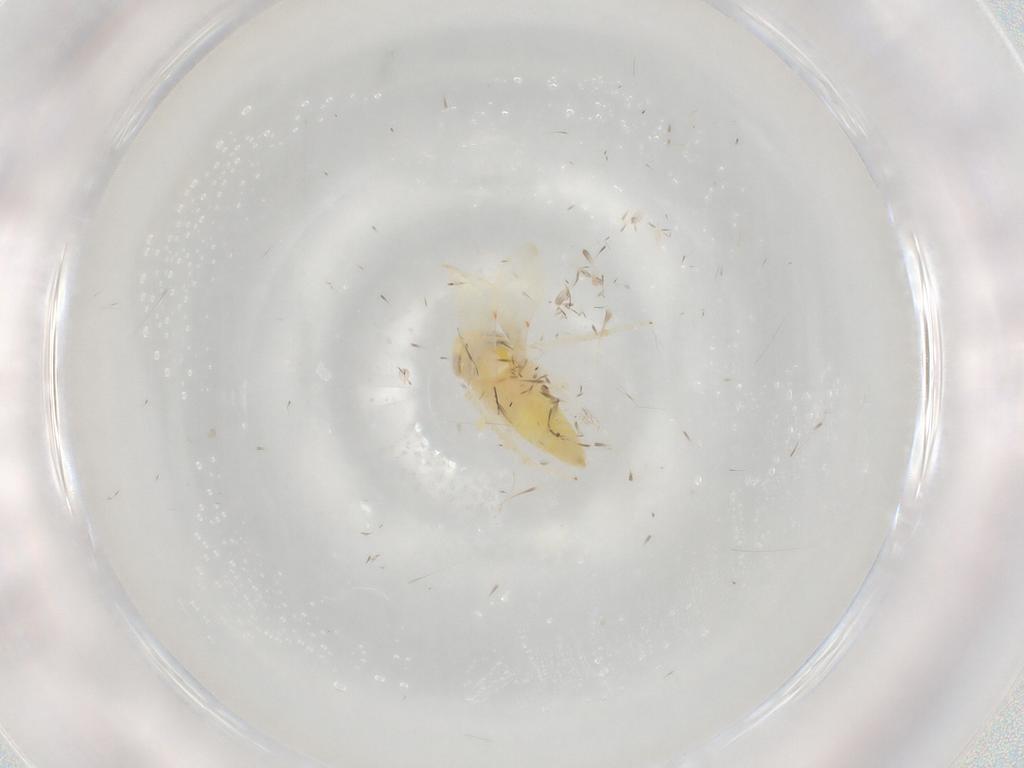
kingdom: Animalia
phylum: Arthropoda
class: Insecta
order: Hemiptera
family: Cicadellidae
